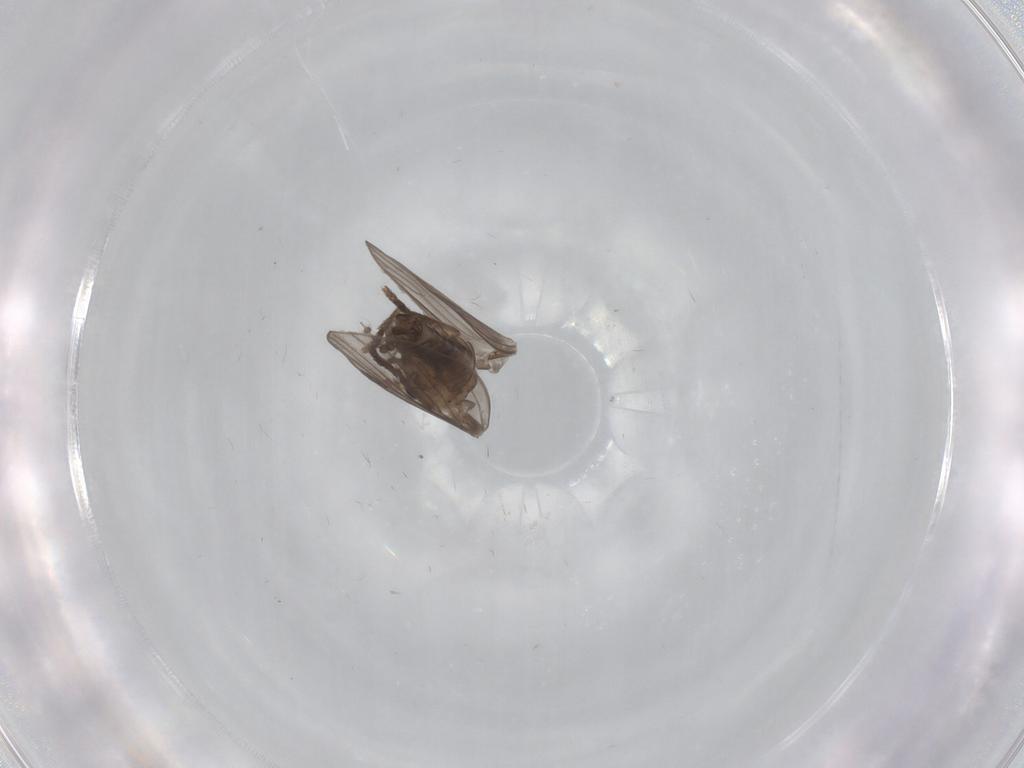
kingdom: Animalia
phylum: Arthropoda
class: Insecta
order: Diptera
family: Psychodidae
